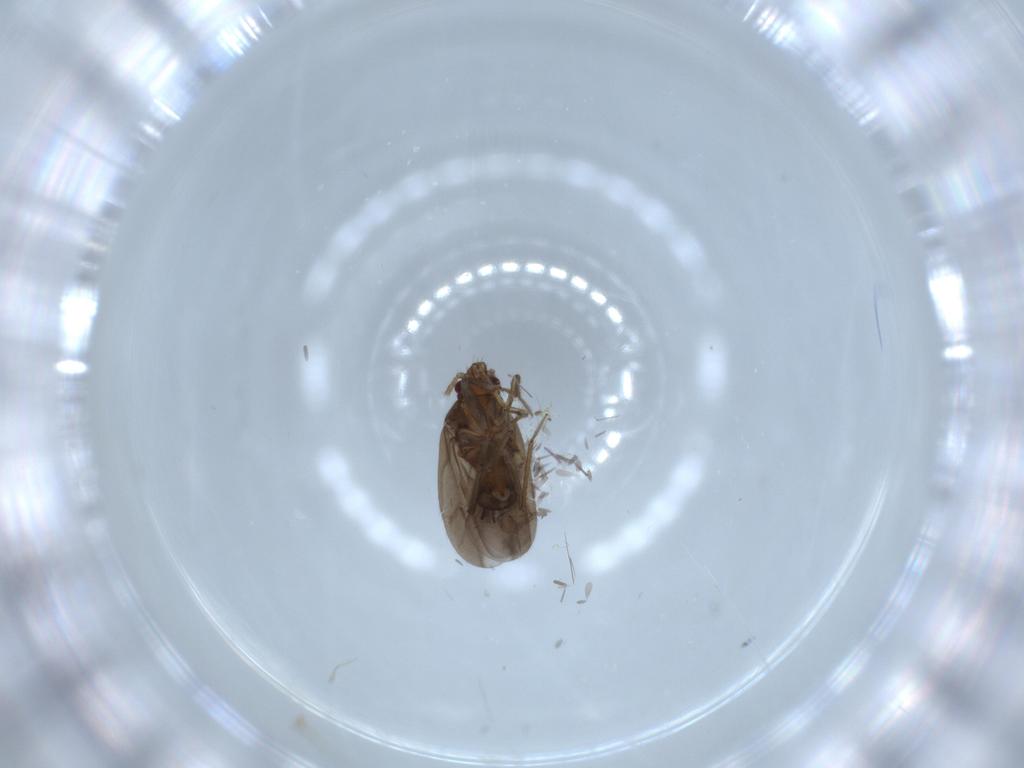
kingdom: Animalia
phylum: Arthropoda
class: Insecta
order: Hemiptera
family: Ceratocombidae
